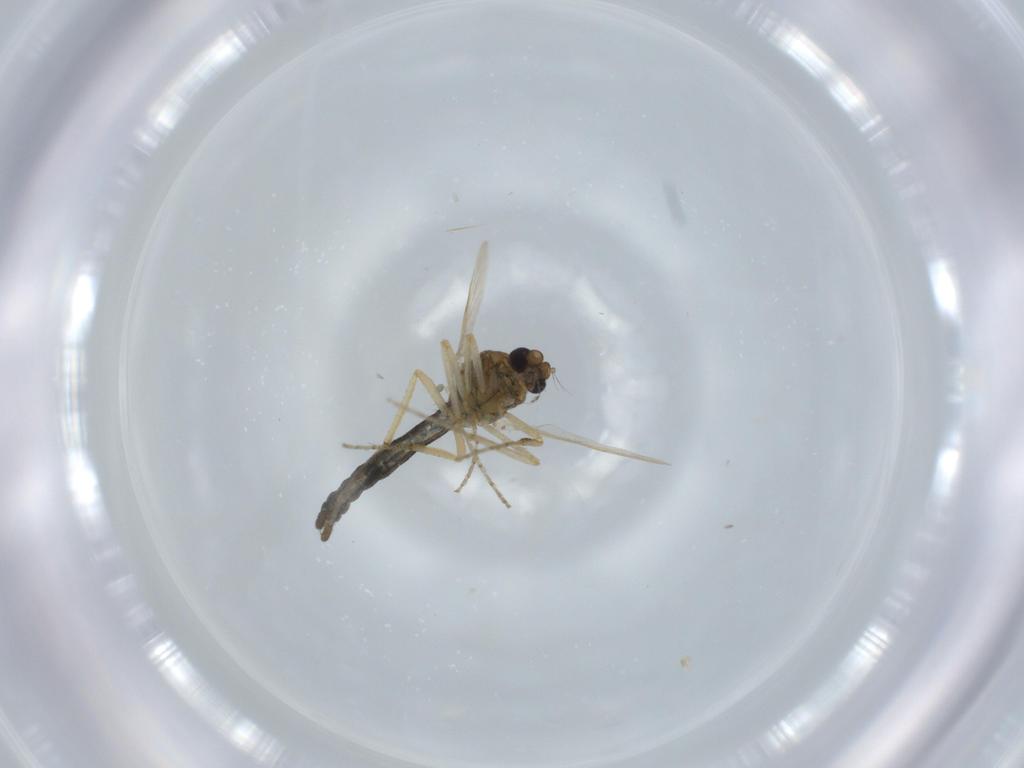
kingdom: Animalia
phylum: Arthropoda
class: Insecta
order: Diptera
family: Ceratopogonidae
